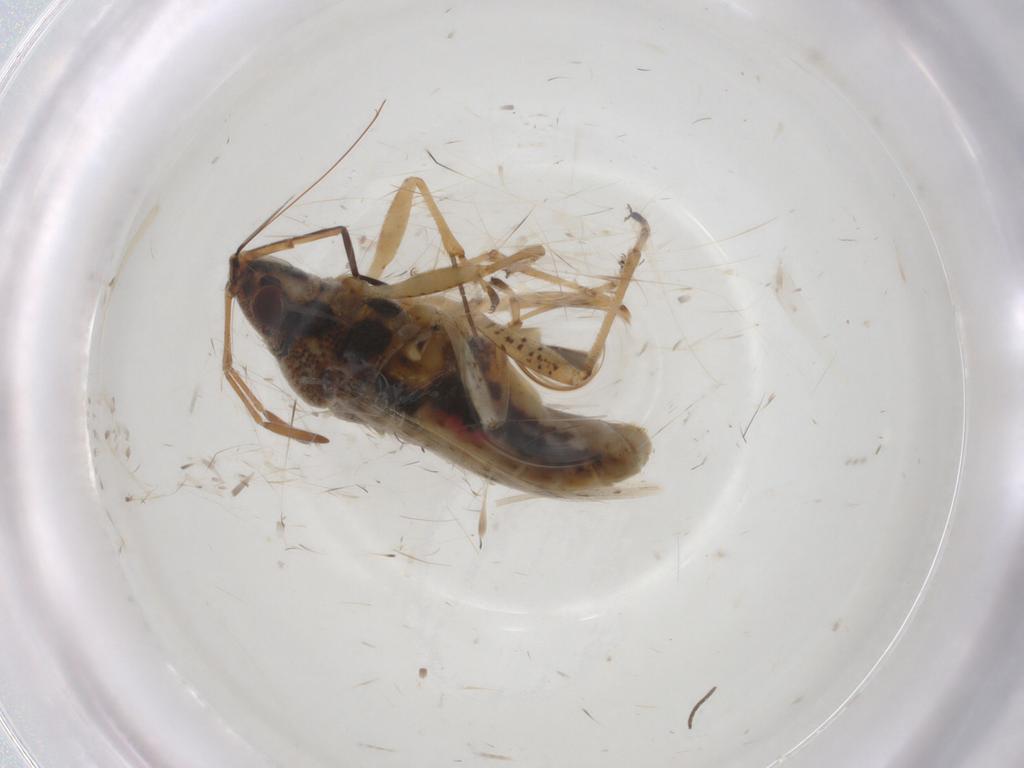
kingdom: Animalia
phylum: Arthropoda
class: Insecta
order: Hemiptera
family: Lygaeidae
